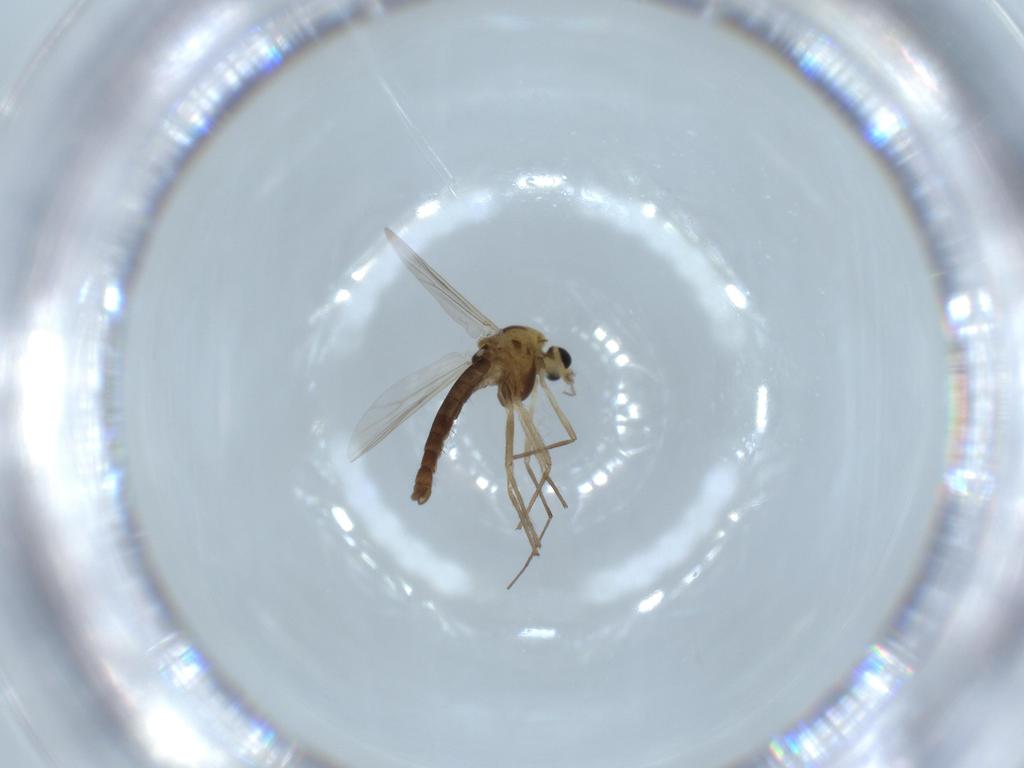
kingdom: Animalia
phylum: Arthropoda
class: Insecta
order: Diptera
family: Chironomidae
